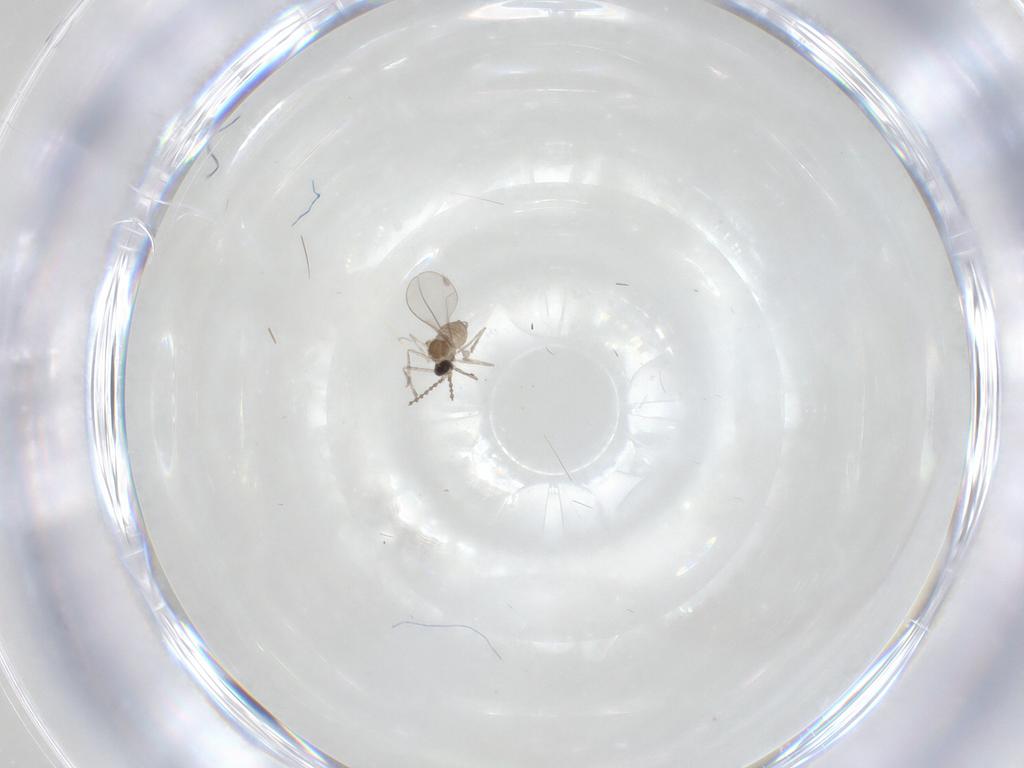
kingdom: Animalia
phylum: Arthropoda
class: Insecta
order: Diptera
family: Cecidomyiidae
